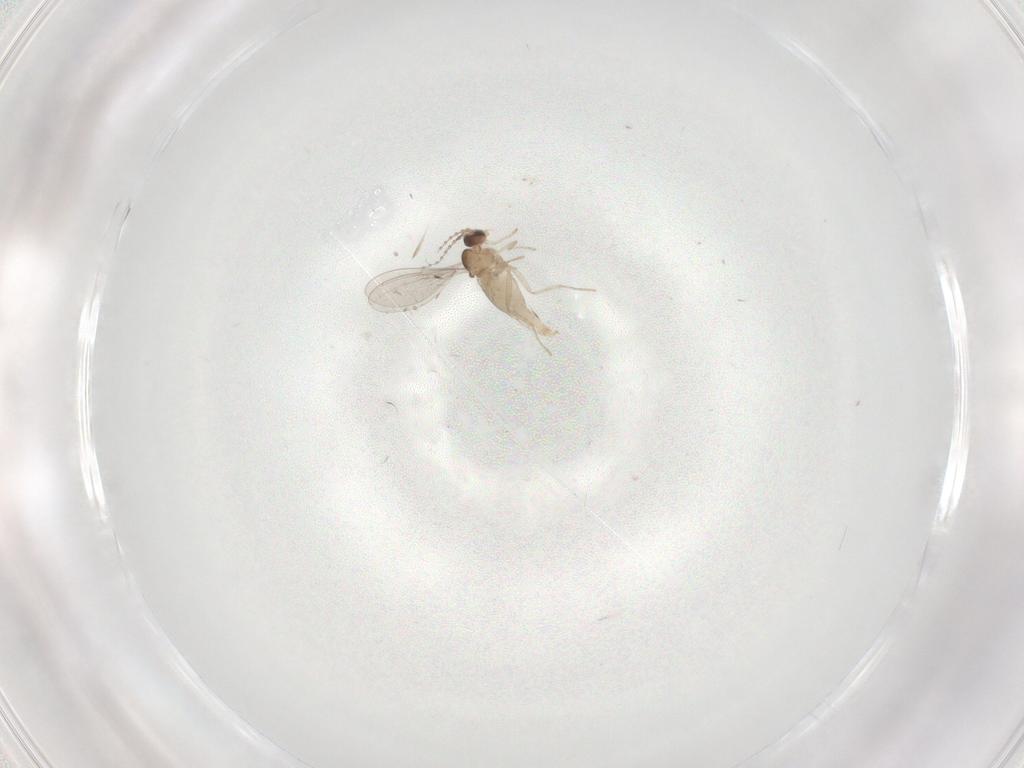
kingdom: Animalia
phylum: Arthropoda
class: Insecta
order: Diptera
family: Cecidomyiidae
